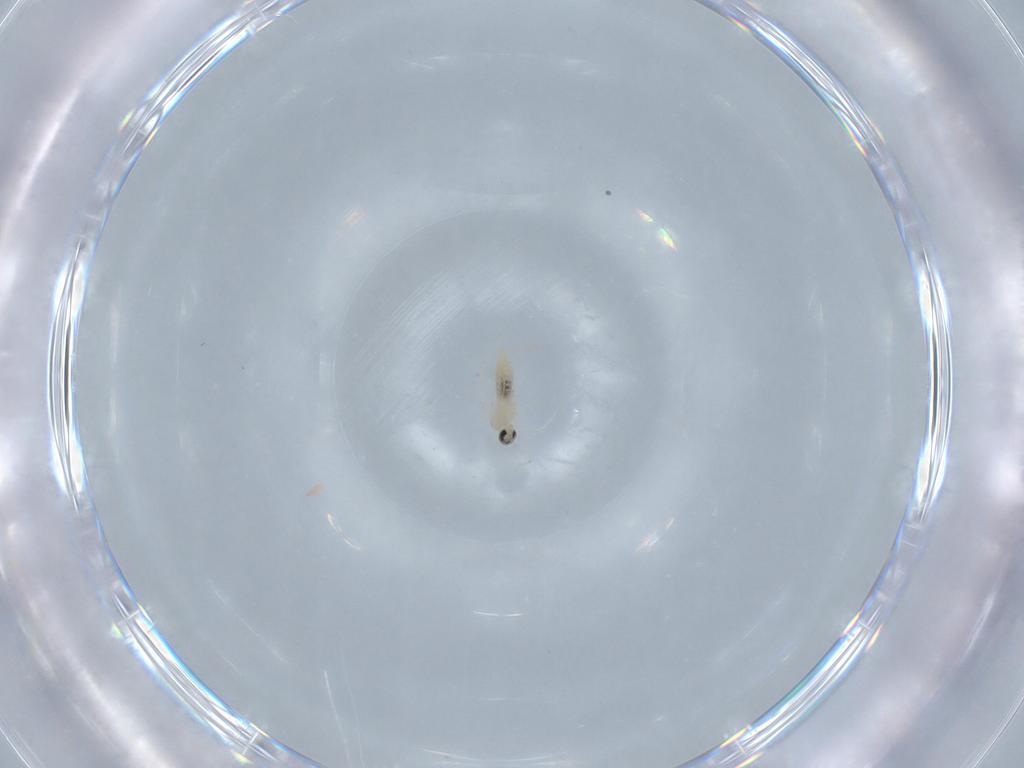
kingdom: Animalia
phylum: Arthropoda
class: Insecta
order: Diptera
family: Cecidomyiidae
